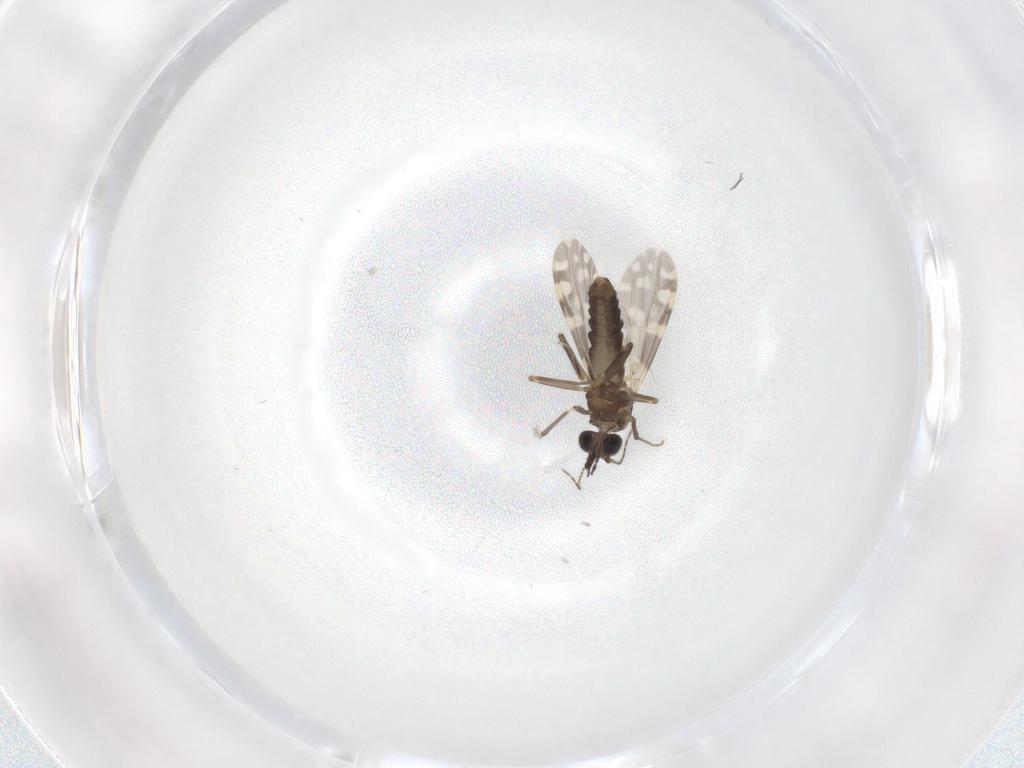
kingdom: Animalia
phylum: Arthropoda
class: Insecta
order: Diptera
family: Ceratopogonidae
